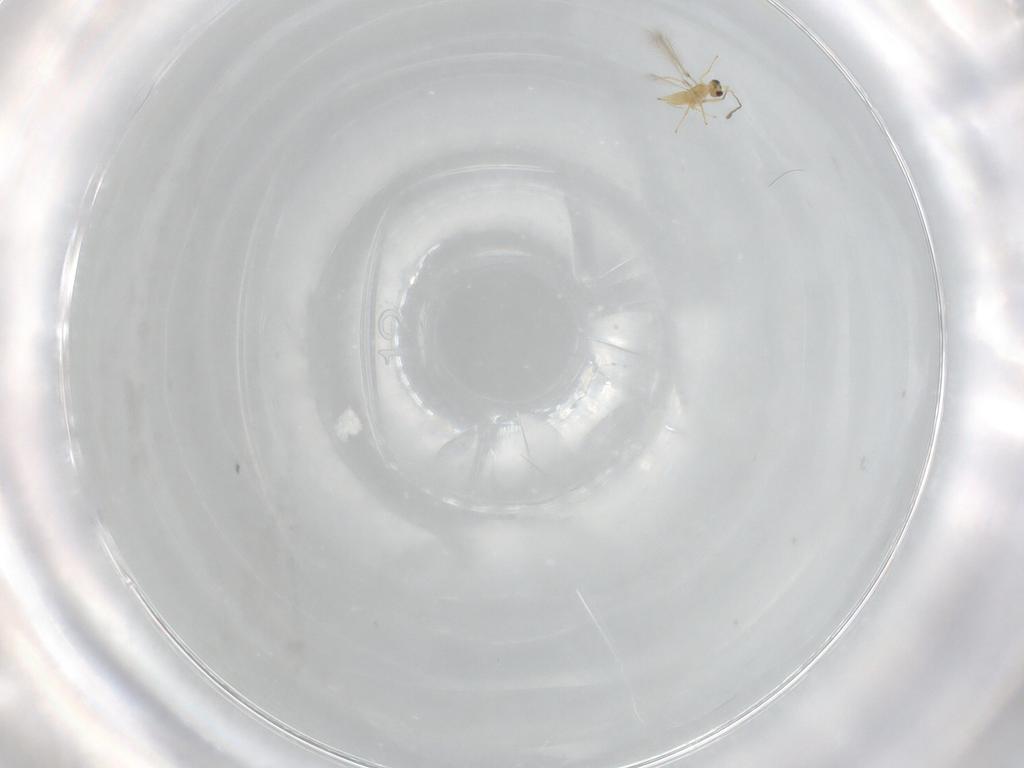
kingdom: Animalia
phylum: Arthropoda
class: Insecta
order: Hymenoptera
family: Mymaridae
